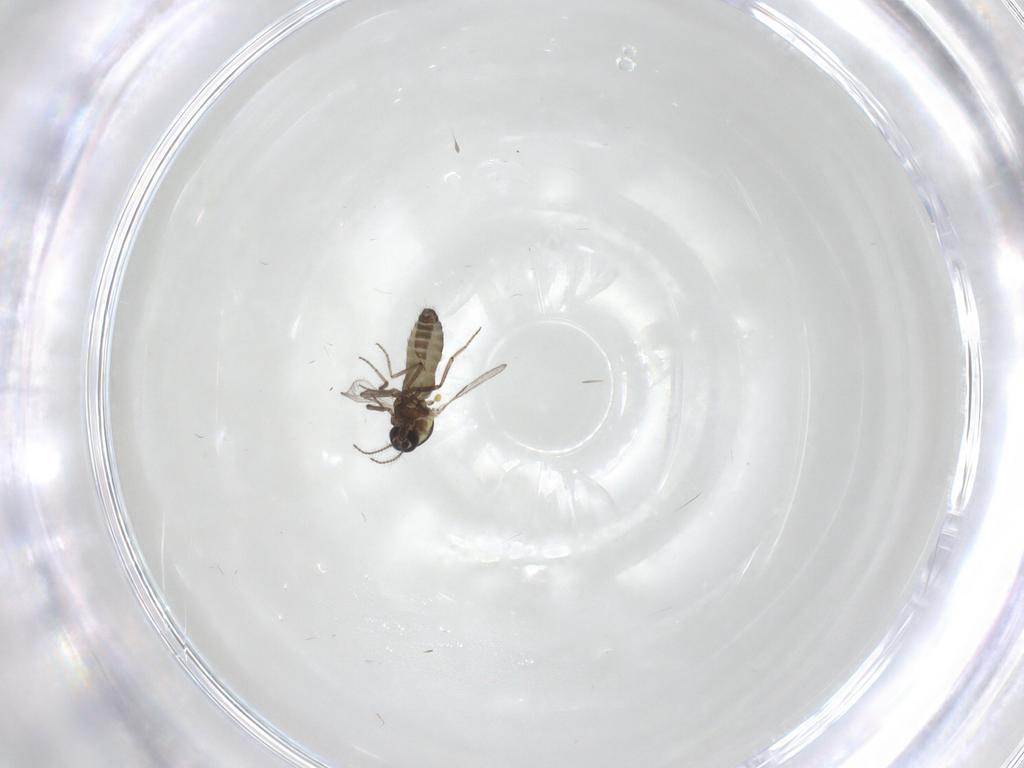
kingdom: Animalia
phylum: Arthropoda
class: Insecta
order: Diptera
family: Ceratopogonidae
